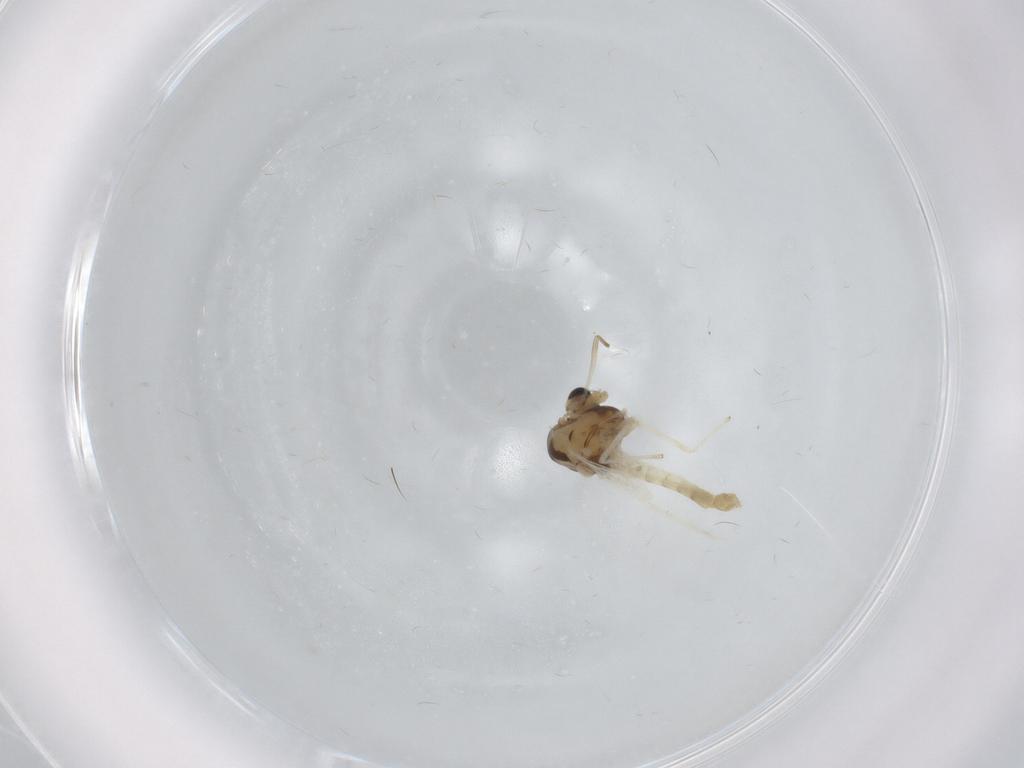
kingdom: Animalia
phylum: Arthropoda
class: Insecta
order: Diptera
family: Chironomidae
